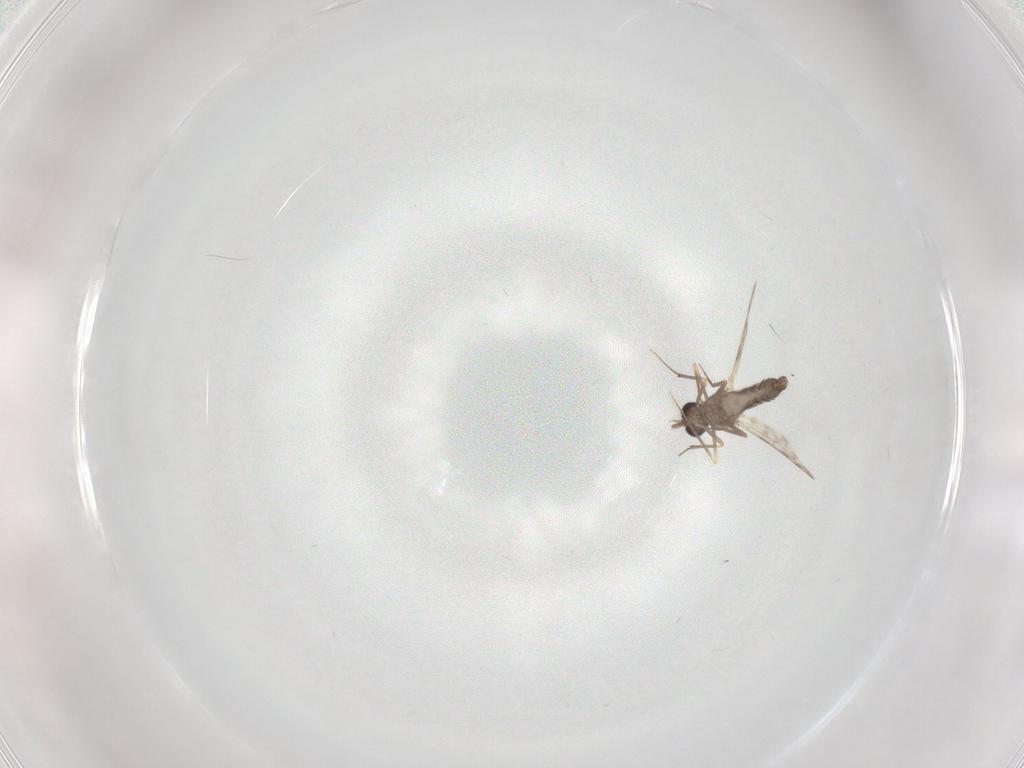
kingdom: Animalia
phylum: Arthropoda
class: Insecta
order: Diptera
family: Ceratopogonidae
